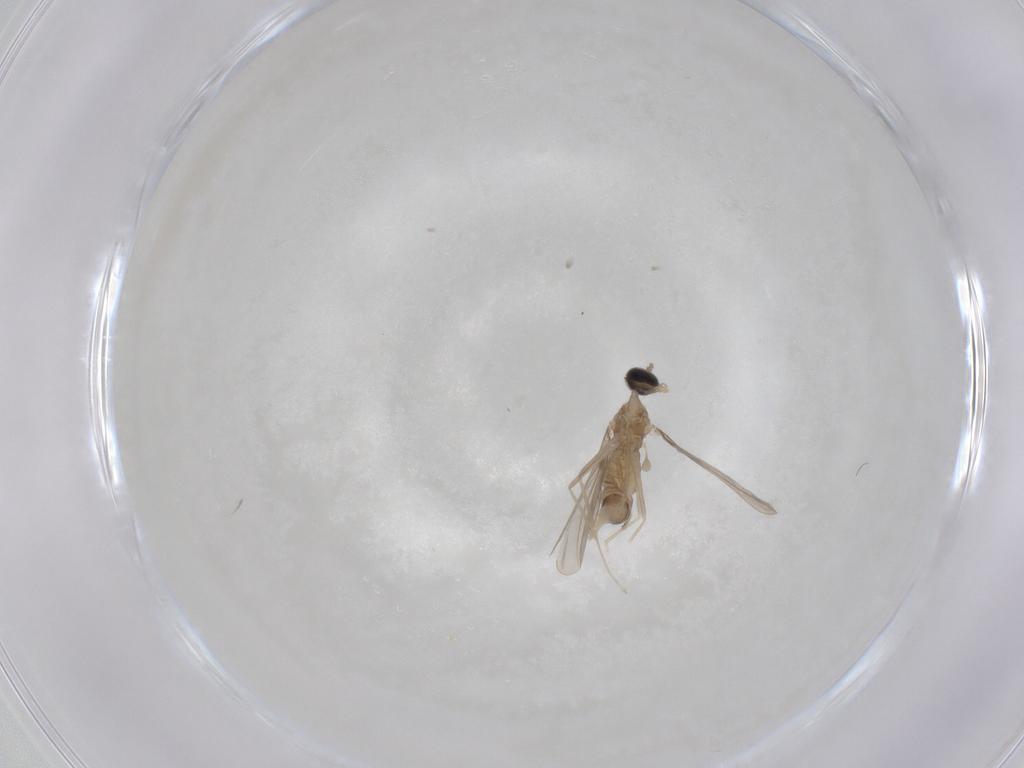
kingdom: Animalia
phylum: Arthropoda
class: Insecta
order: Diptera
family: Cecidomyiidae
